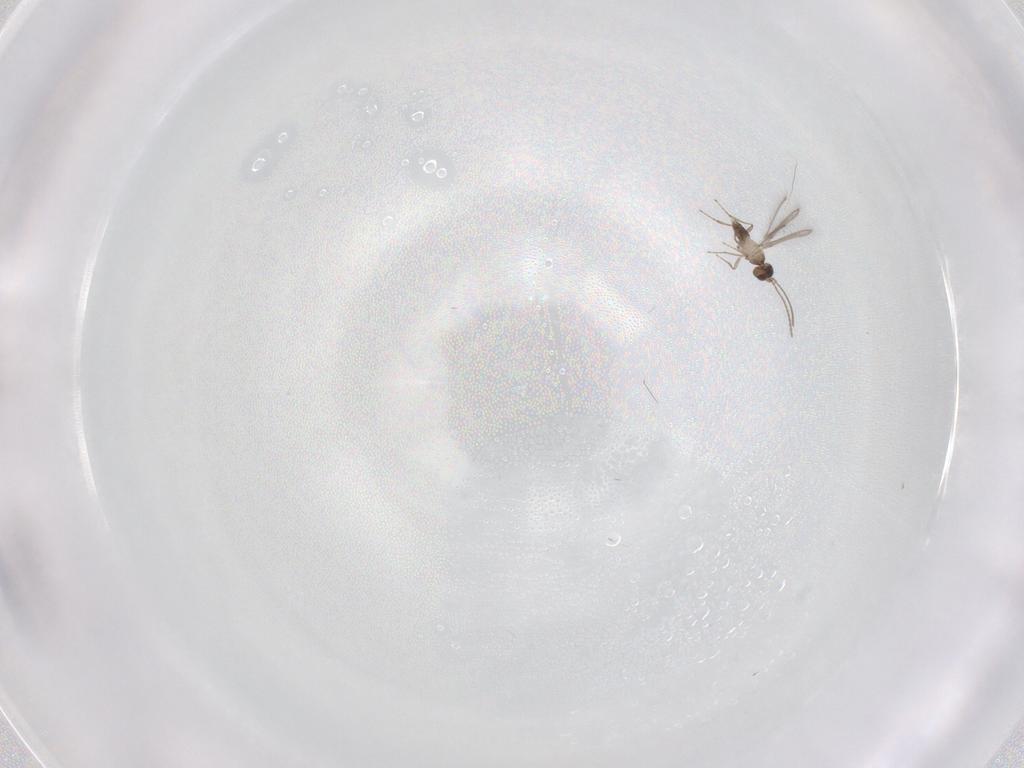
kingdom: Animalia
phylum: Arthropoda
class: Insecta
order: Hymenoptera
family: Mymaridae
